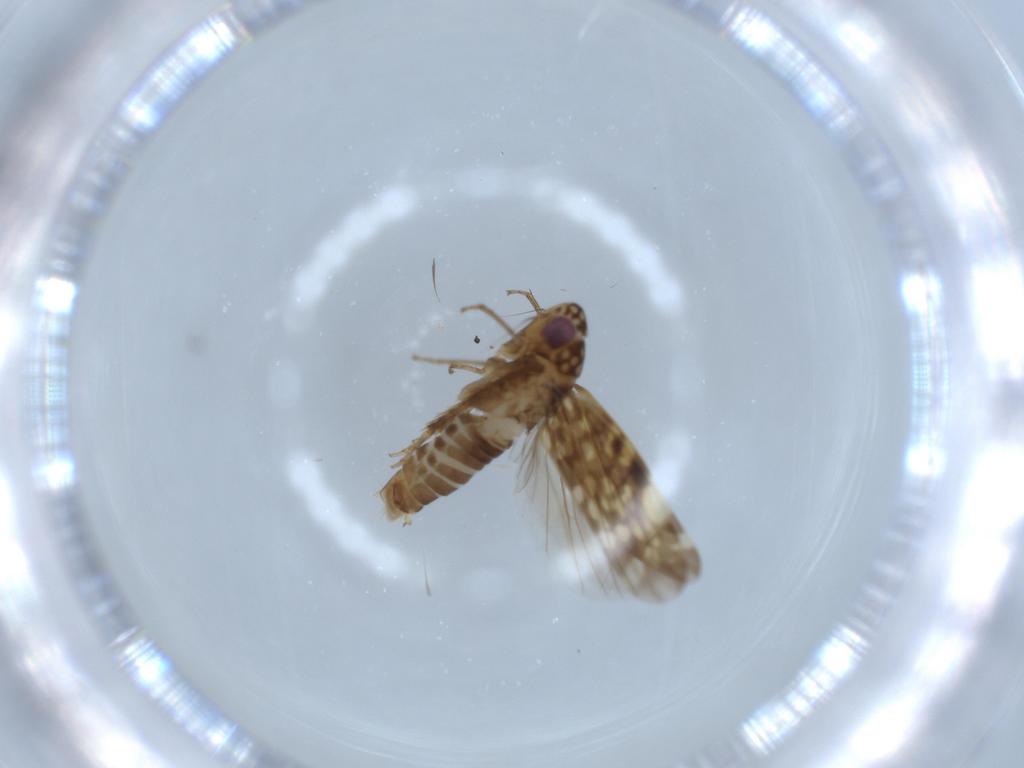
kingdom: Animalia
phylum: Arthropoda
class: Insecta
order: Hemiptera
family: Cicadellidae
